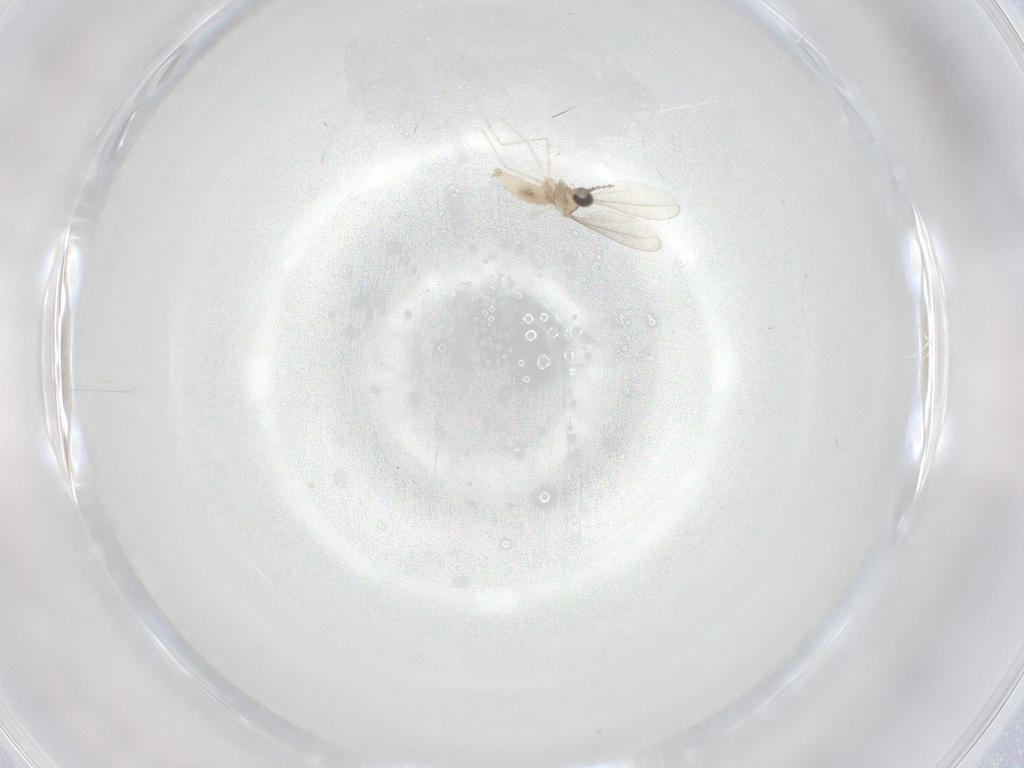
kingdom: Animalia
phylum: Arthropoda
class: Insecta
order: Diptera
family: Cecidomyiidae
